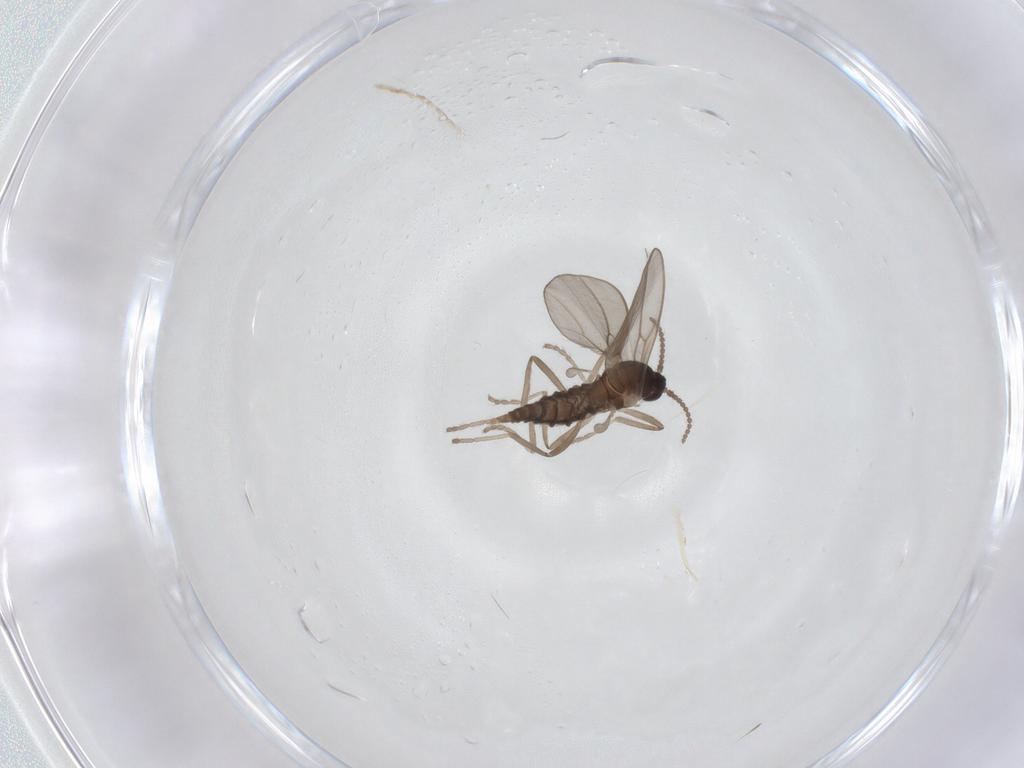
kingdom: Animalia
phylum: Arthropoda
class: Insecta
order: Diptera
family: Cecidomyiidae
